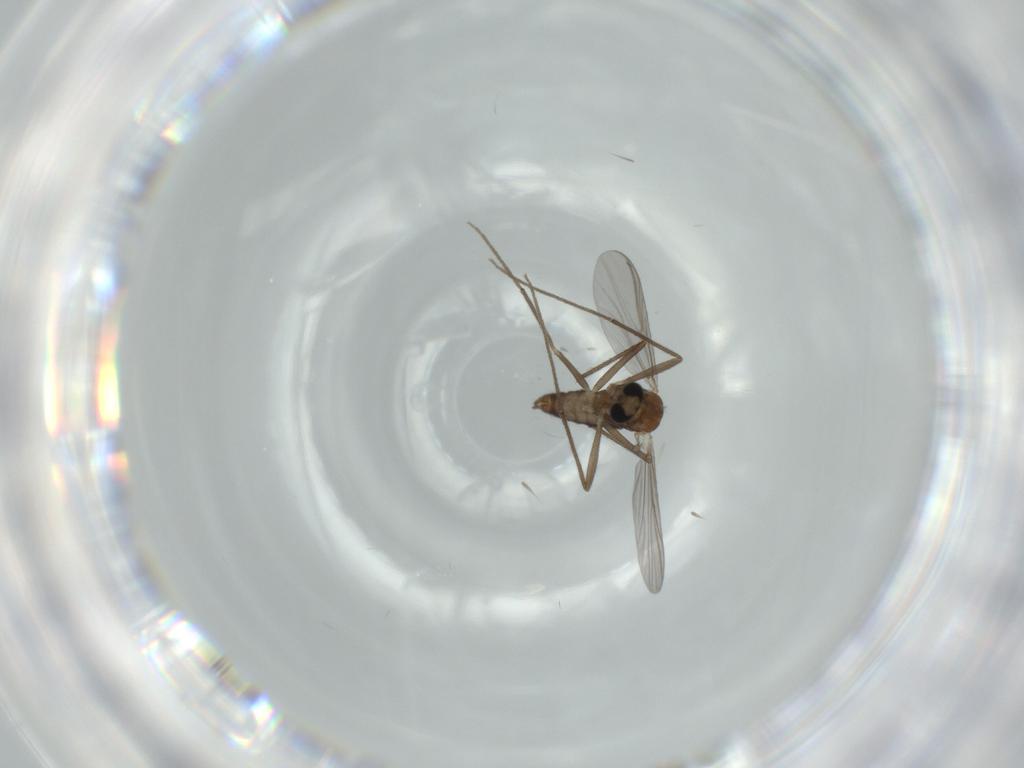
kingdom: Animalia
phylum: Arthropoda
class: Insecta
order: Diptera
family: Chironomidae
